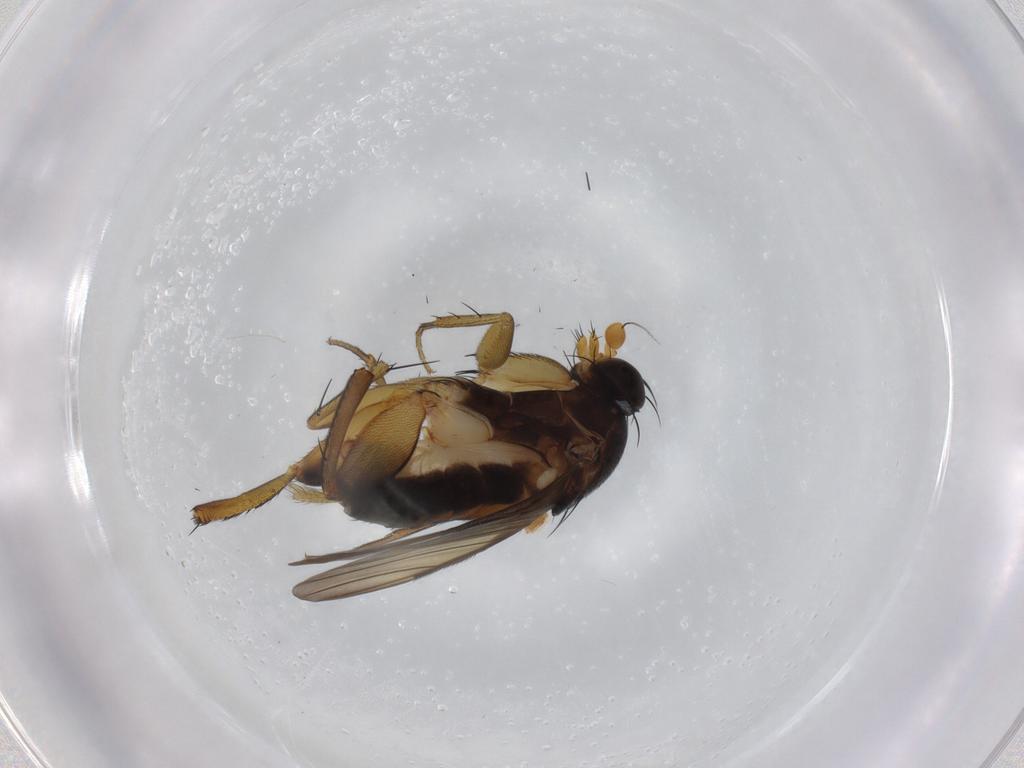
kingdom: Animalia
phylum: Arthropoda
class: Insecta
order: Diptera
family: Phoridae
